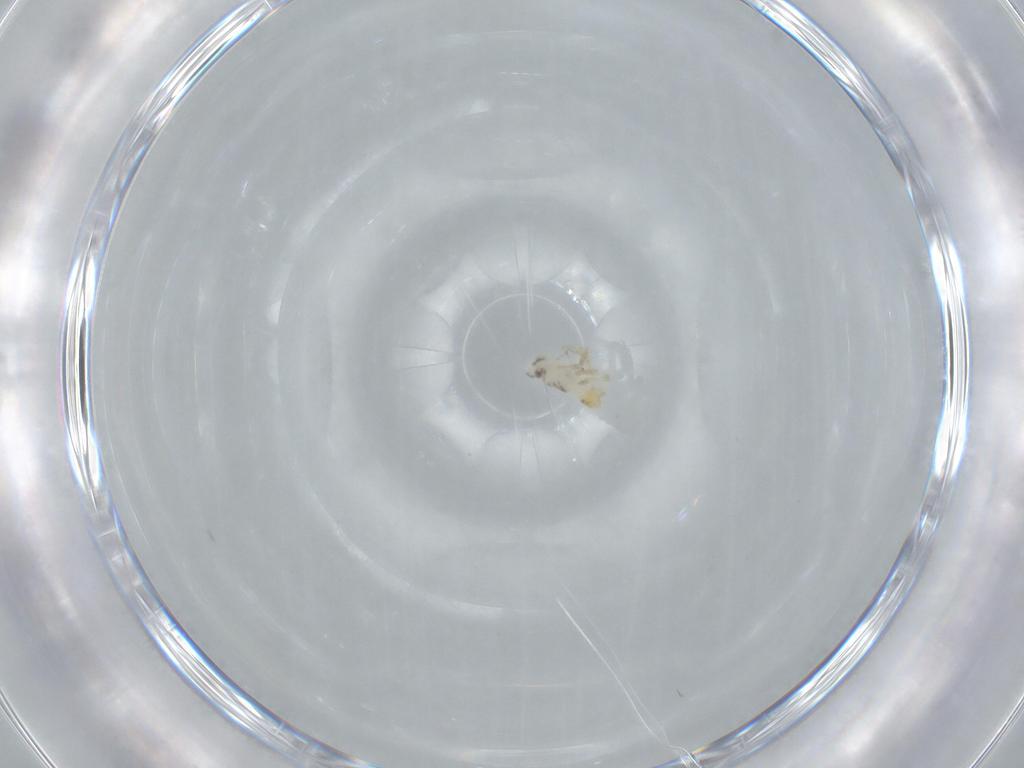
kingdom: Animalia
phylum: Arthropoda
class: Insecta
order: Hemiptera
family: Delphacidae
